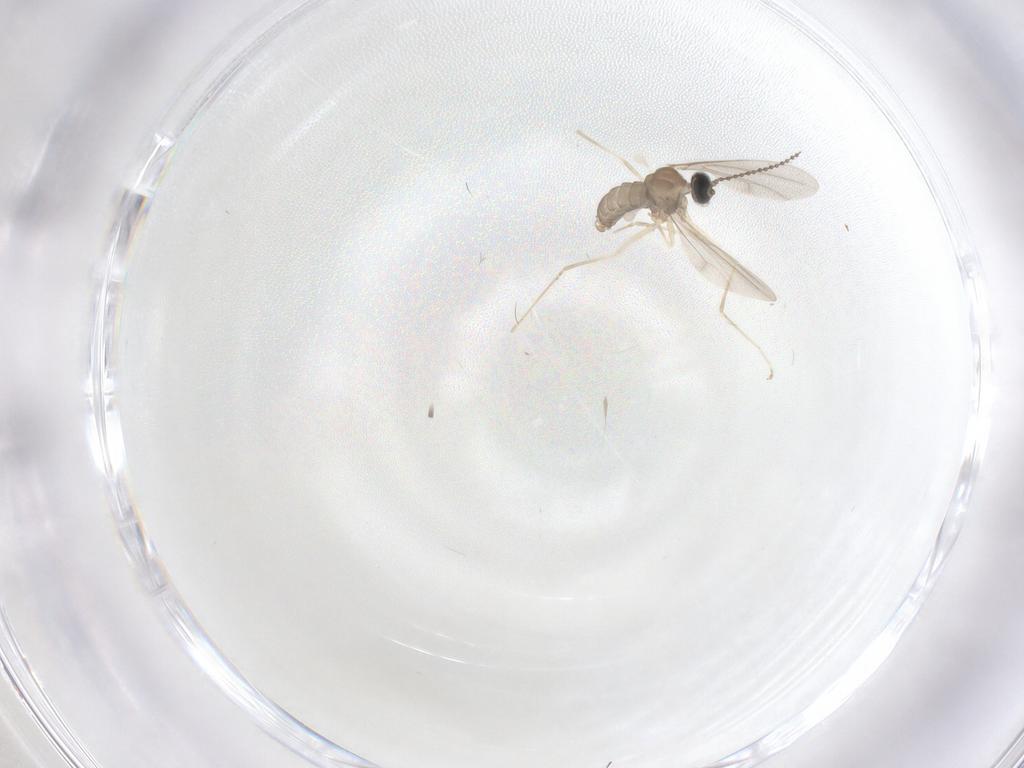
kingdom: Animalia
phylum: Arthropoda
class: Insecta
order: Diptera
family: Cecidomyiidae
